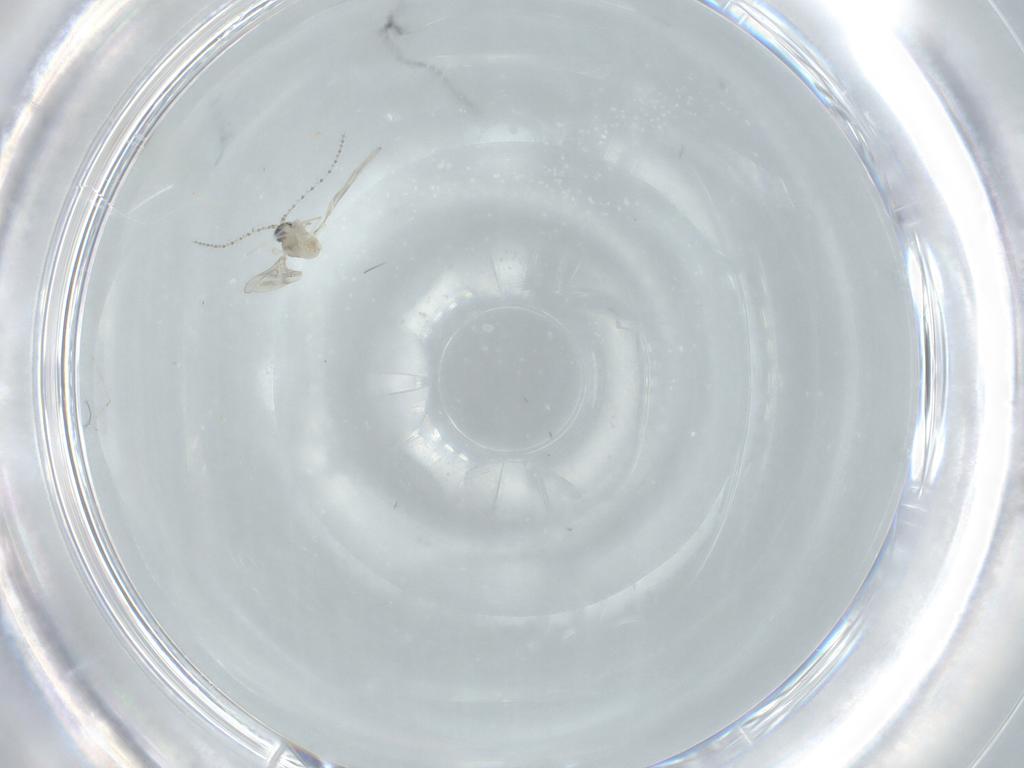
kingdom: Animalia
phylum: Arthropoda
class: Insecta
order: Diptera
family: Cecidomyiidae
